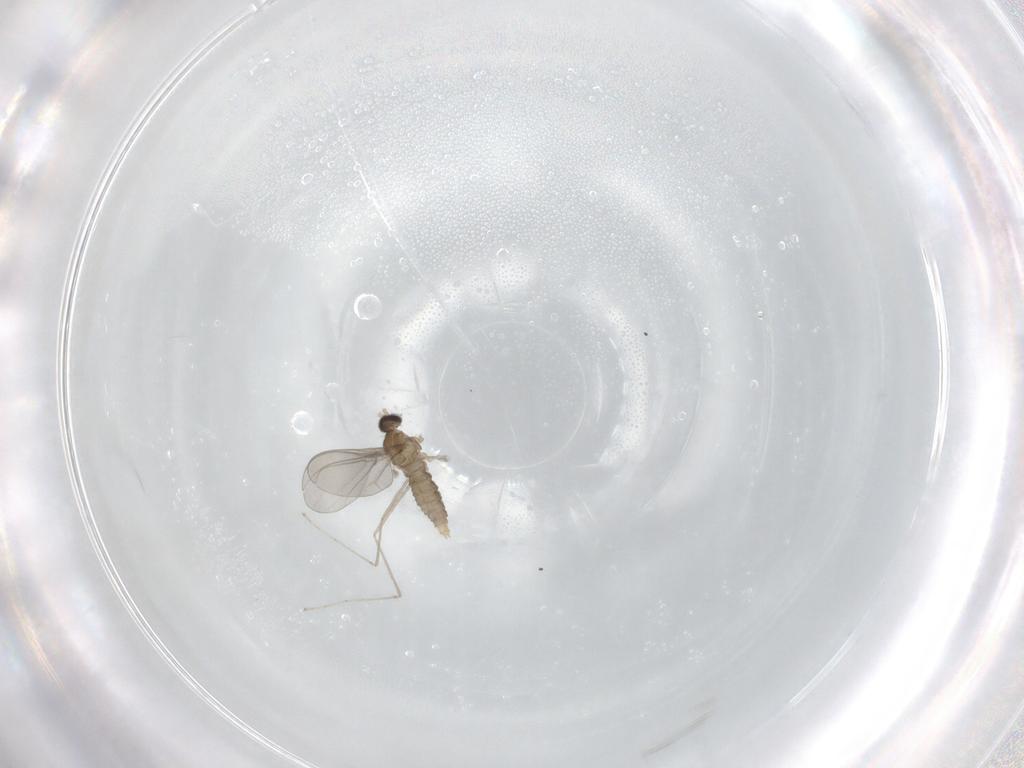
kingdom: Animalia
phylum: Arthropoda
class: Insecta
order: Diptera
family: Cecidomyiidae
